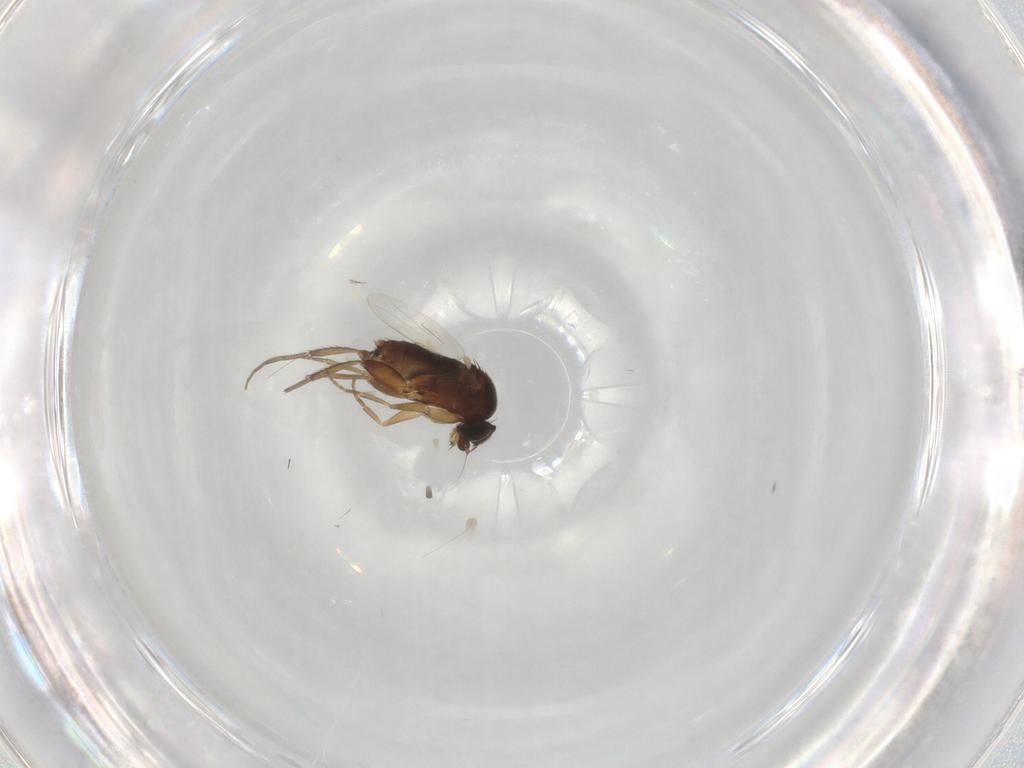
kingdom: Animalia
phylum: Arthropoda
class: Insecta
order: Diptera
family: Phoridae
